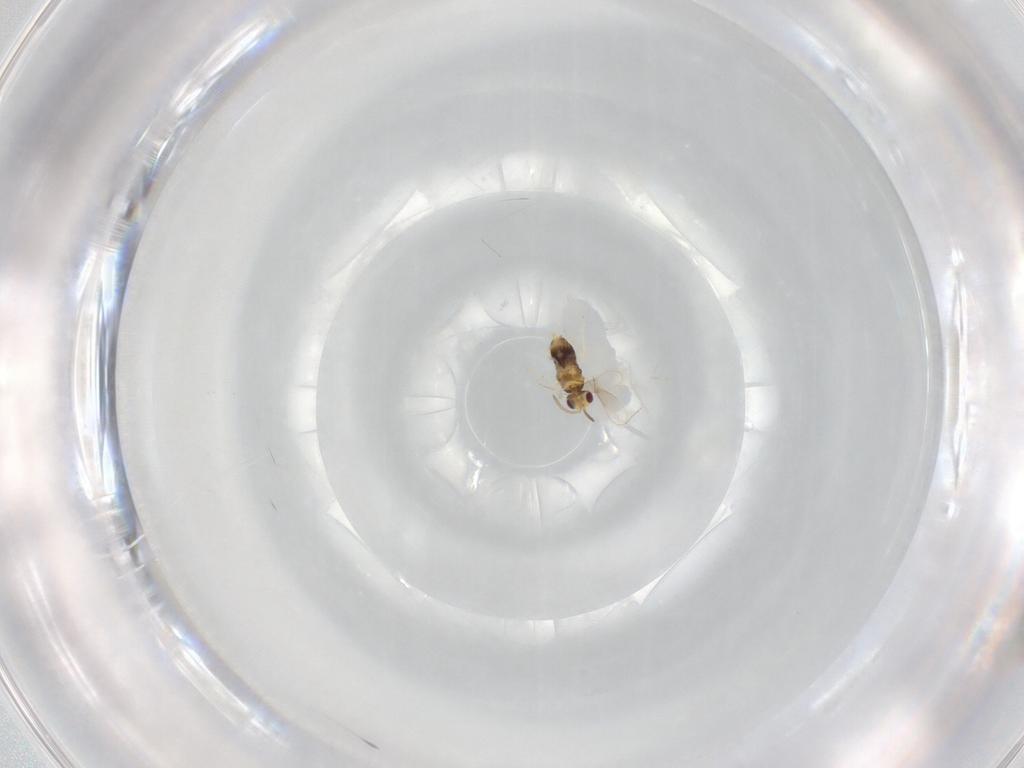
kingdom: Animalia
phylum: Arthropoda
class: Insecta
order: Hymenoptera
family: Aphelinidae
